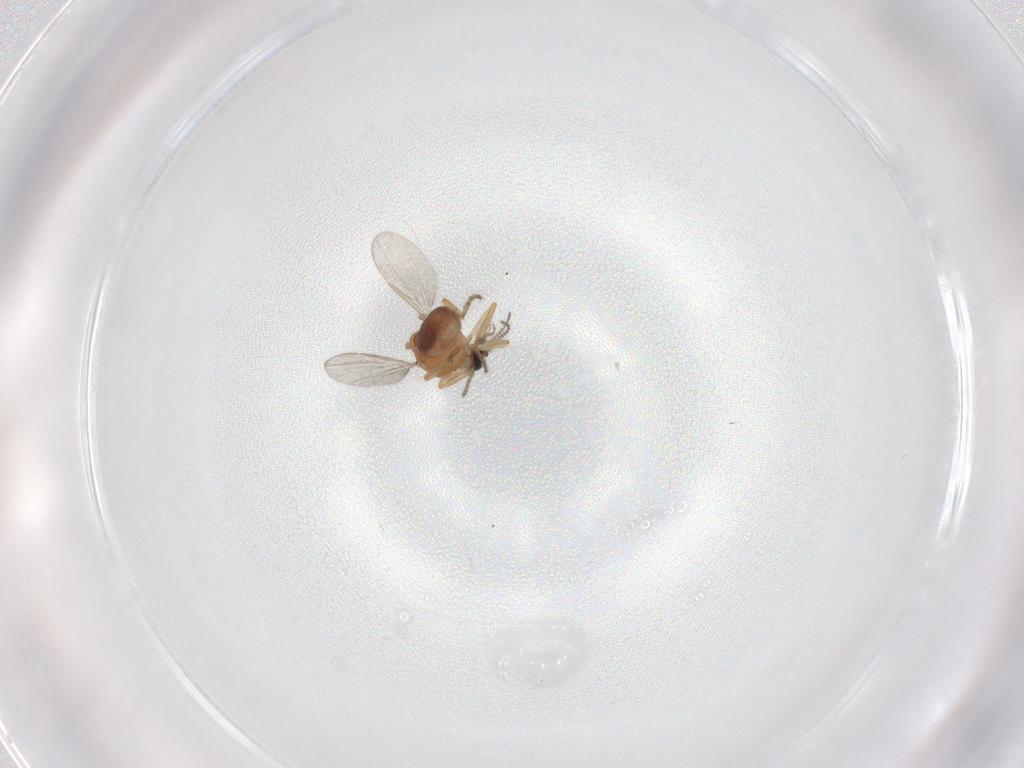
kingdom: Animalia
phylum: Arthropoda
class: Insecta
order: Diptera
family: Ceratopogonidae
